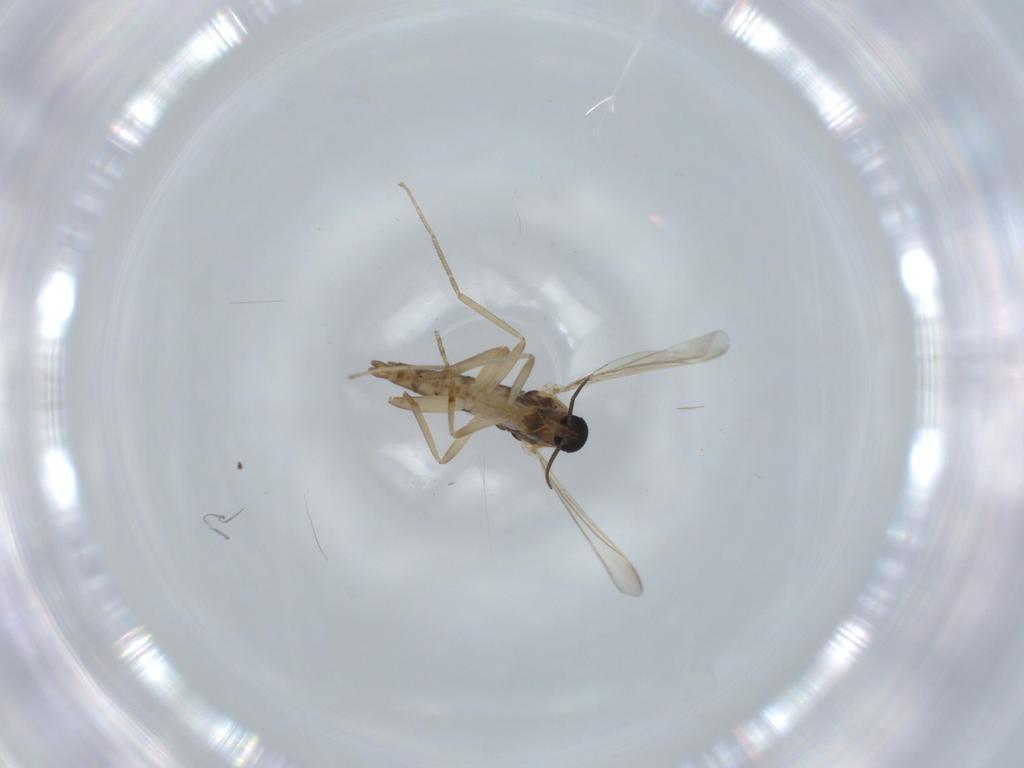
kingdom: Animalia
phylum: Arthropoda
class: Insecta
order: Diptera
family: Cecidomyiidae
